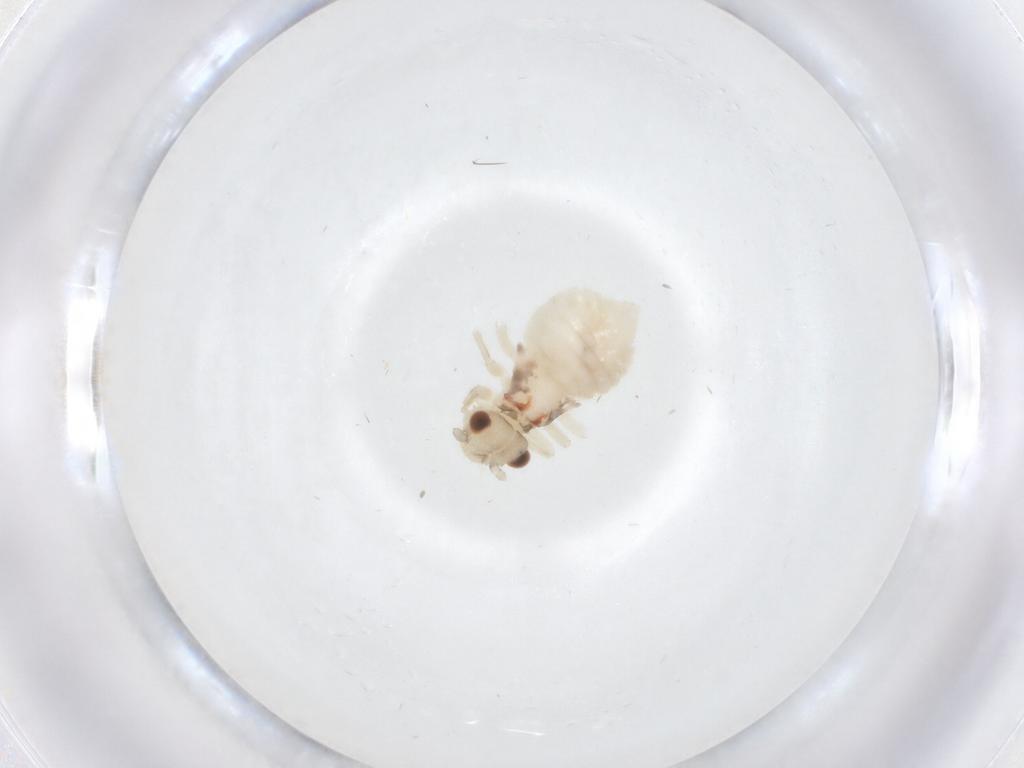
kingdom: Animalia
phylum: Arthropoda
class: Insecta
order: Psocodea
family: Amphipsocidae
